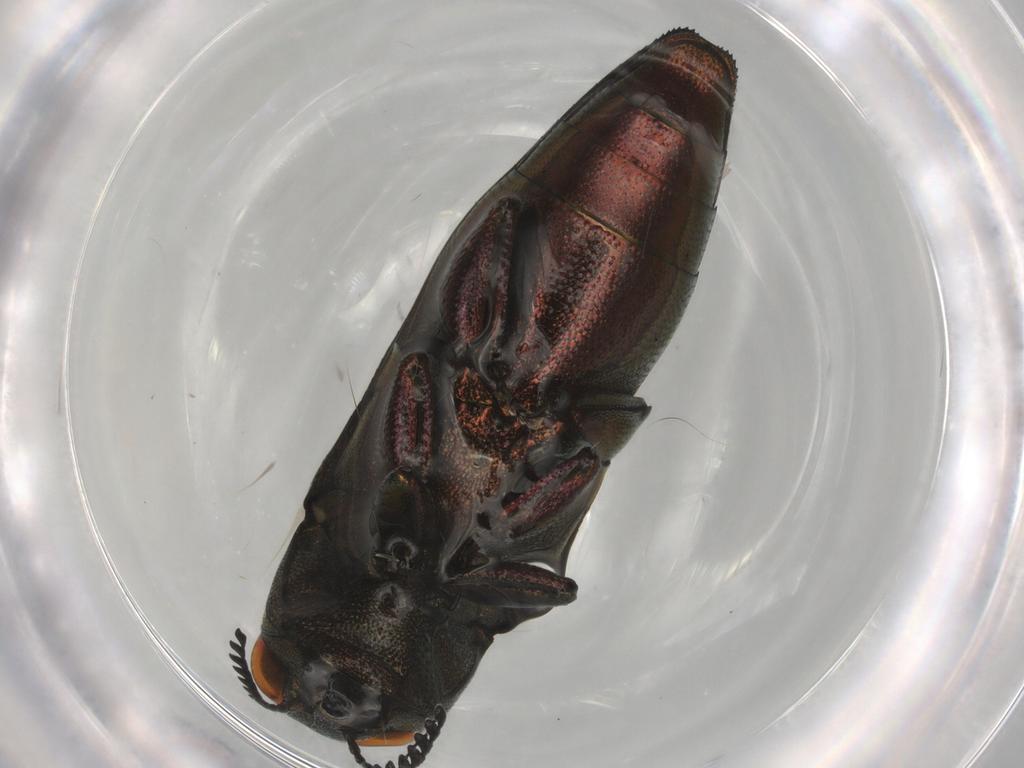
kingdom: Animalia
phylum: Arthropoda
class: Insecta
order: Coleoptera
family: Buprestidae
